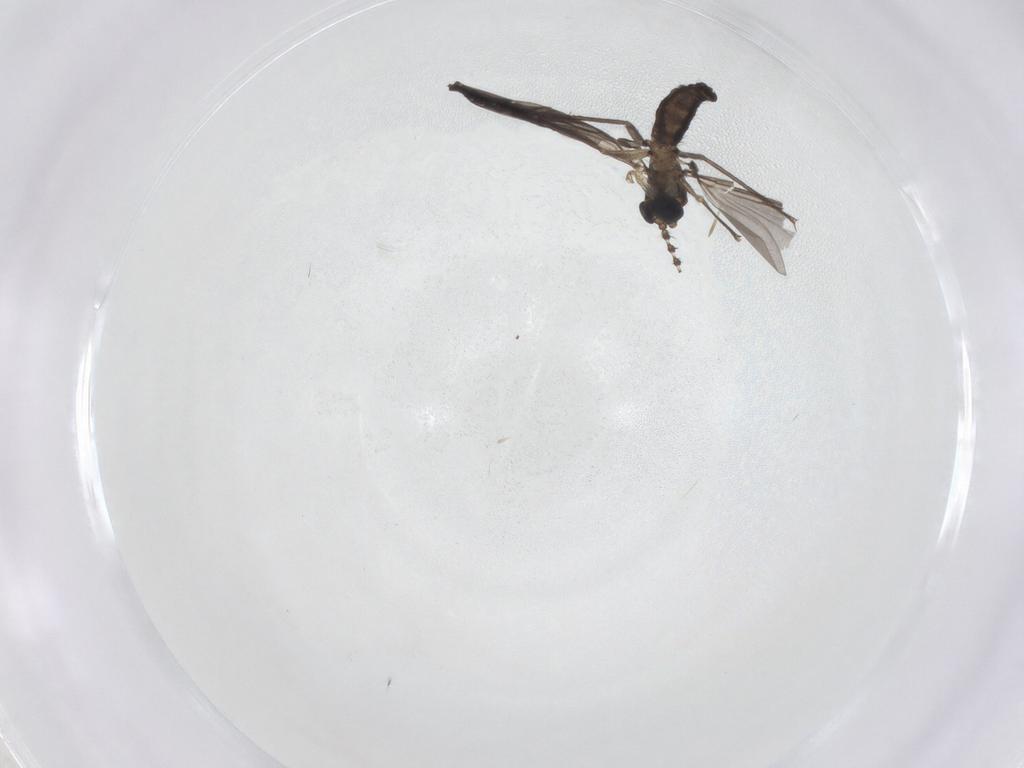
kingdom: Animalia
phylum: Arthropoda
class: Insecta
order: Diptera
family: Sciaridae
